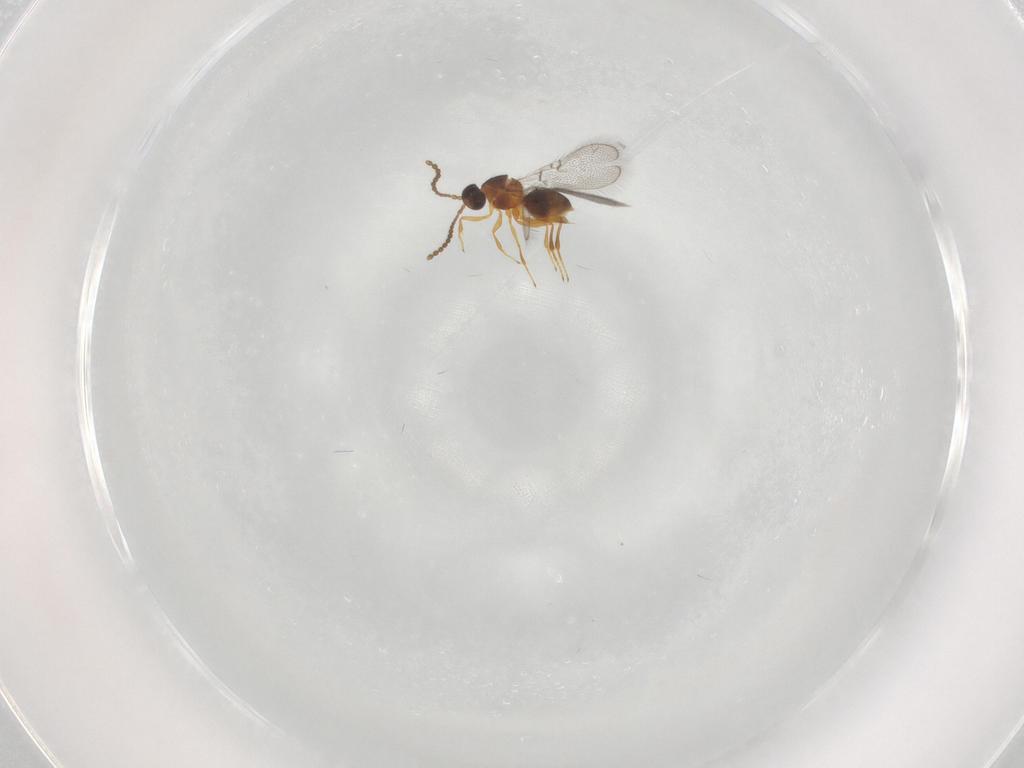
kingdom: Animalia
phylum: Arthropoda
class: Insecta
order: Hymenoptera
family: Figitidae
